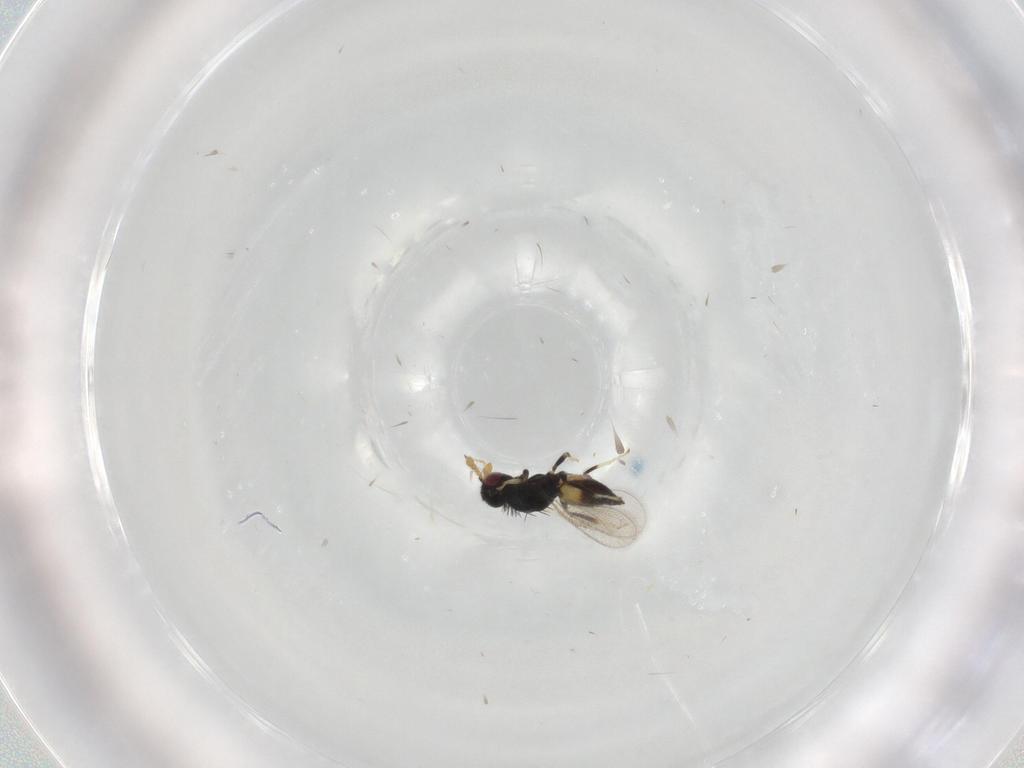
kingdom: Animalia
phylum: Arthropoda
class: Insecta
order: Hymenoptera
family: Eulophidae
